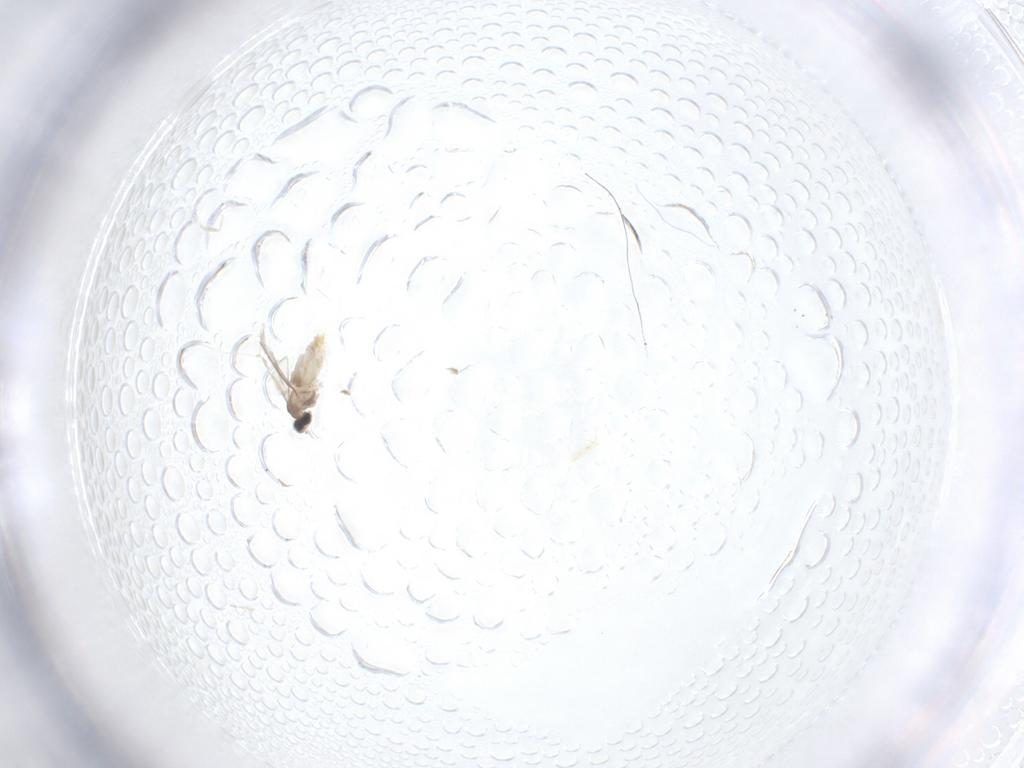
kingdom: Animalia
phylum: Arthropoda
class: Insecta
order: Diptera
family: Cecidomyiidae
